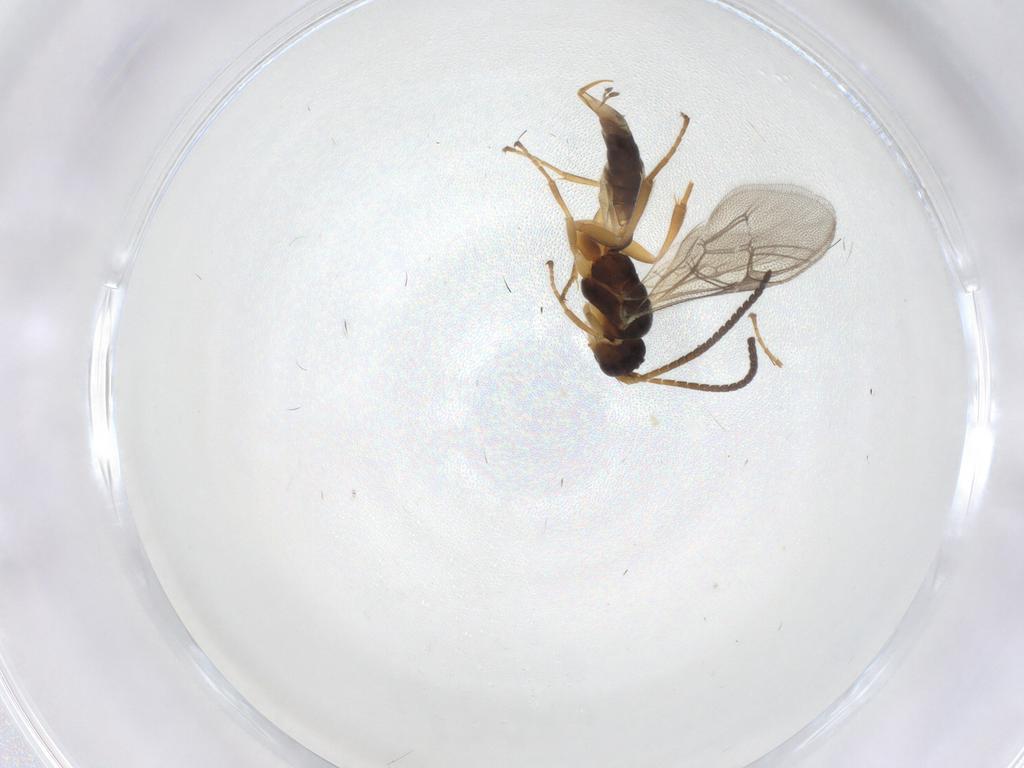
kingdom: Animalia
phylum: Arthropoda
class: Insecta
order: Hymenoptera
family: Ichneumonidae
